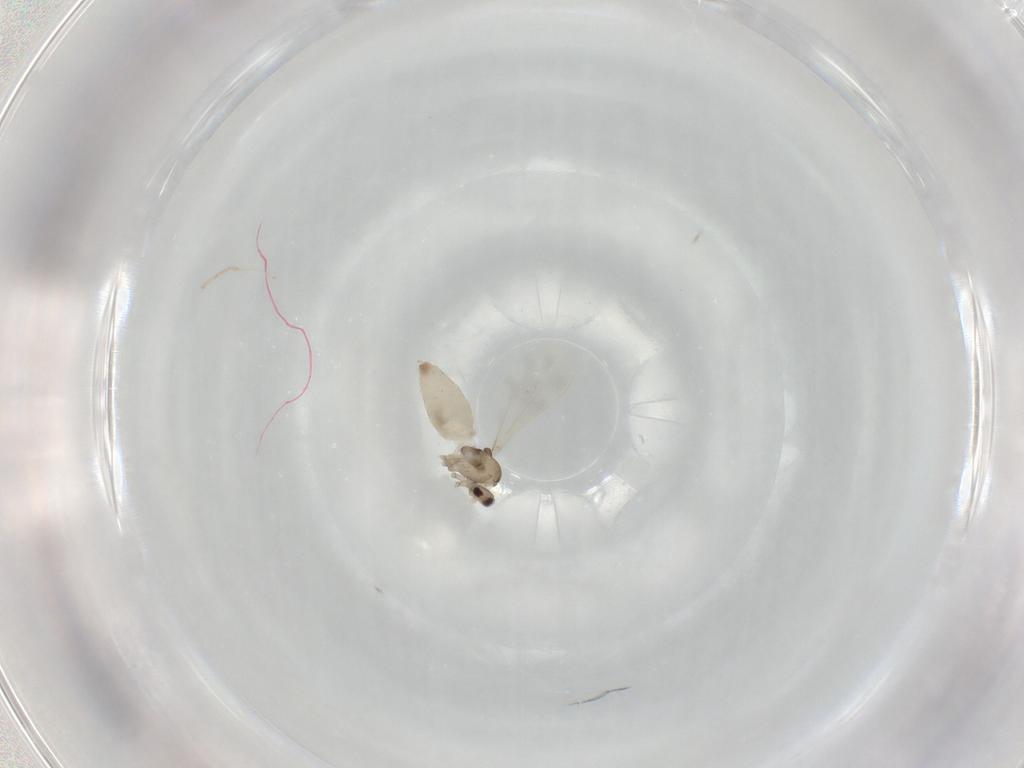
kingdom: Animalia
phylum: Arthropoda
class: Insecta
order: Diptera
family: Cecidomyiidae
